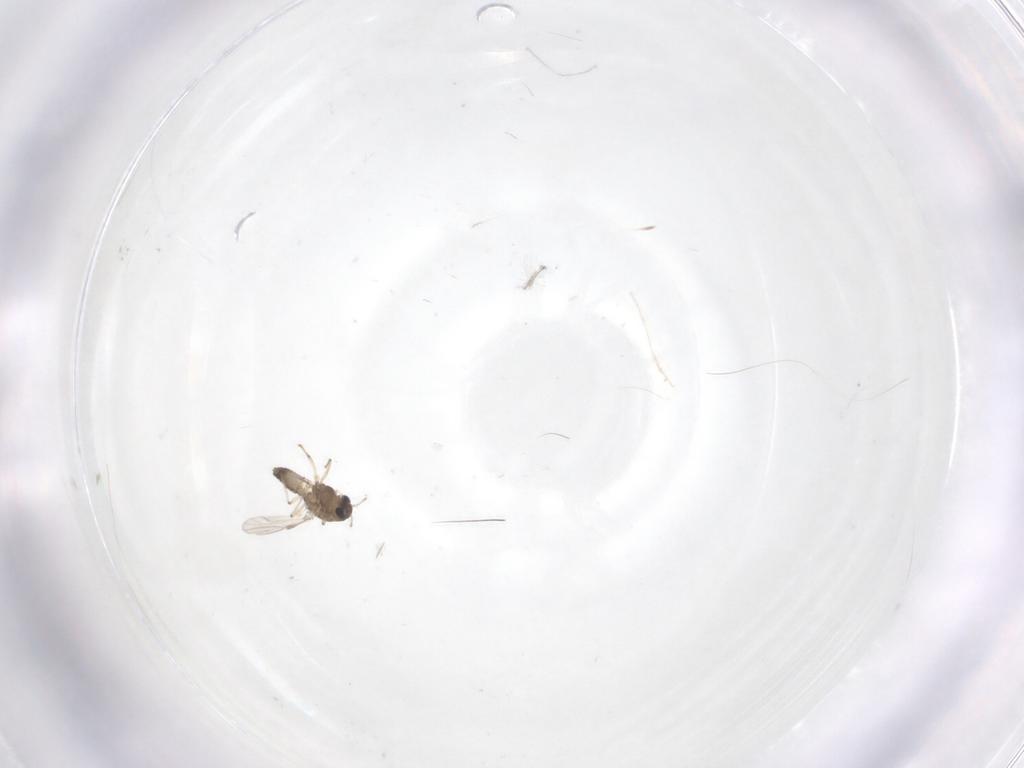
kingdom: Animalia
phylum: Arthropoda
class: Insecta
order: Diptera
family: Chironomidae
